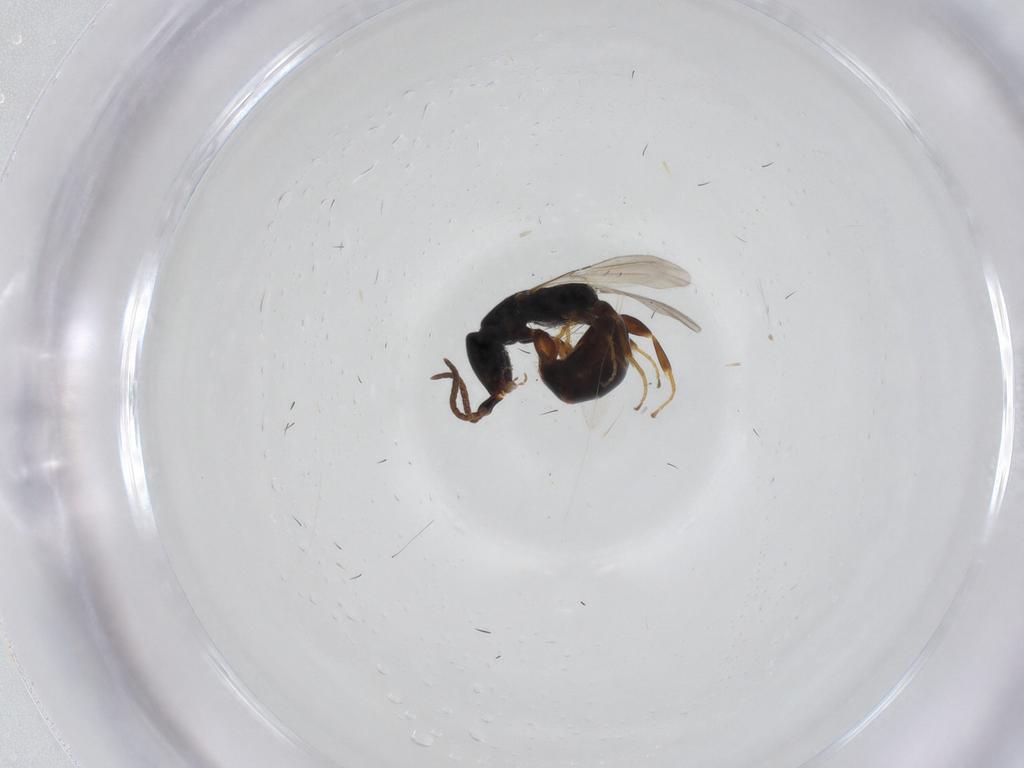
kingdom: Animalia
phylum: Arthropoda
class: Insecta
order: Hymenoptera
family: Bethylidae
